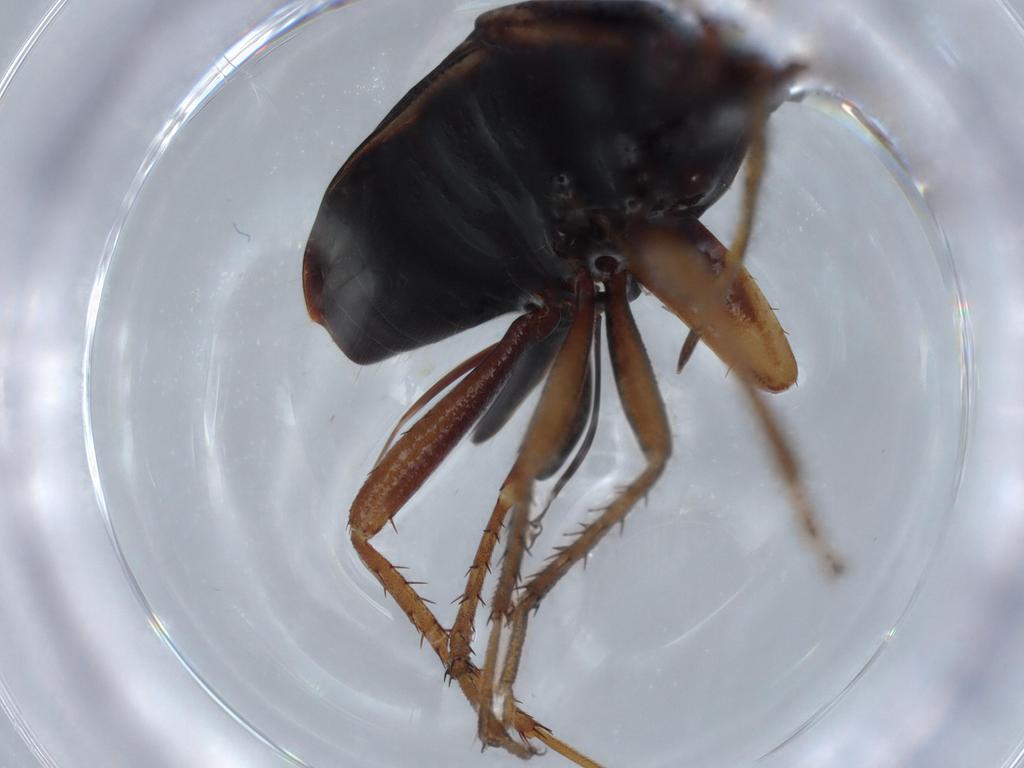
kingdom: Animalia
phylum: Arthropoda
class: Insecta
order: Hemiptera
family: Rhyparochromidae
